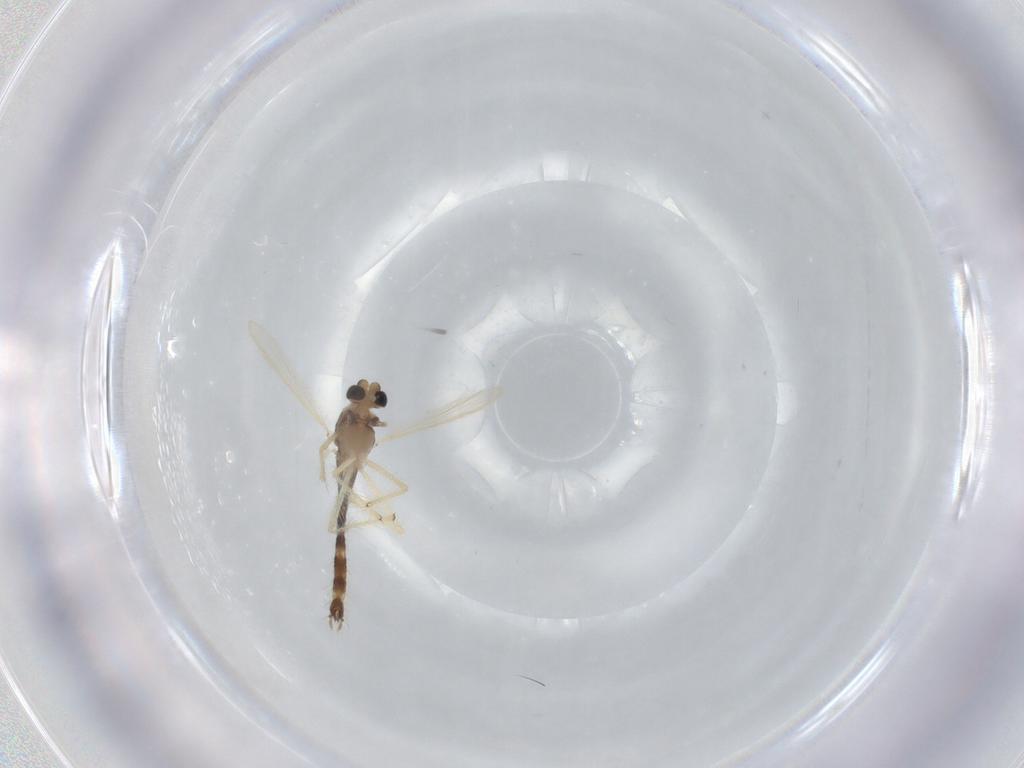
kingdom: Animalia
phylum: Arthropoda
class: Insecta
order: Diptera
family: Chironomidae
